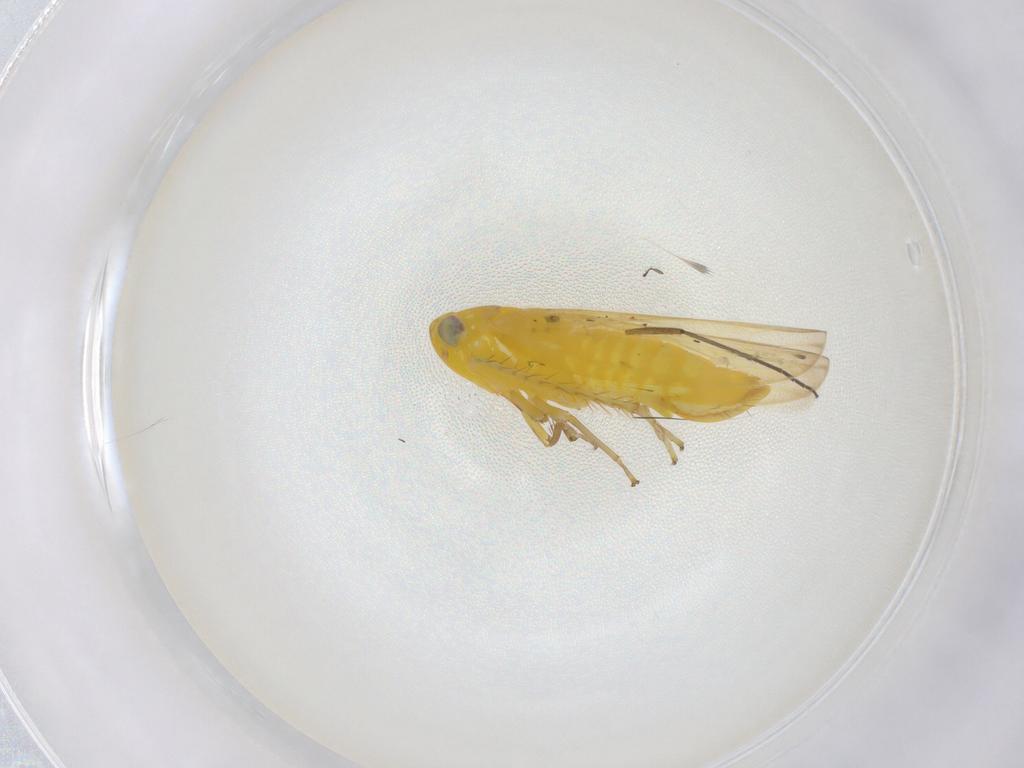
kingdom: Animalia
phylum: Arthropoda
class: Insecta
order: Hemiptera
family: Cicadellidae
